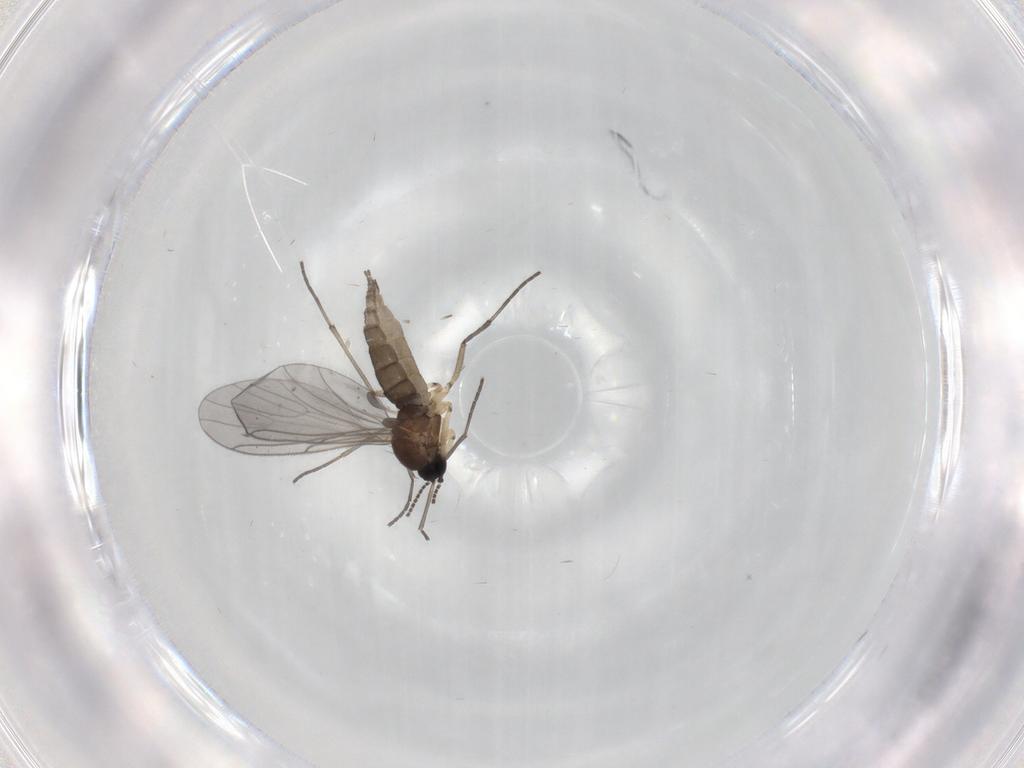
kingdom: Animalia
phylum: Arthropoda
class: Insecta
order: Diptera
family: Sciaridae
